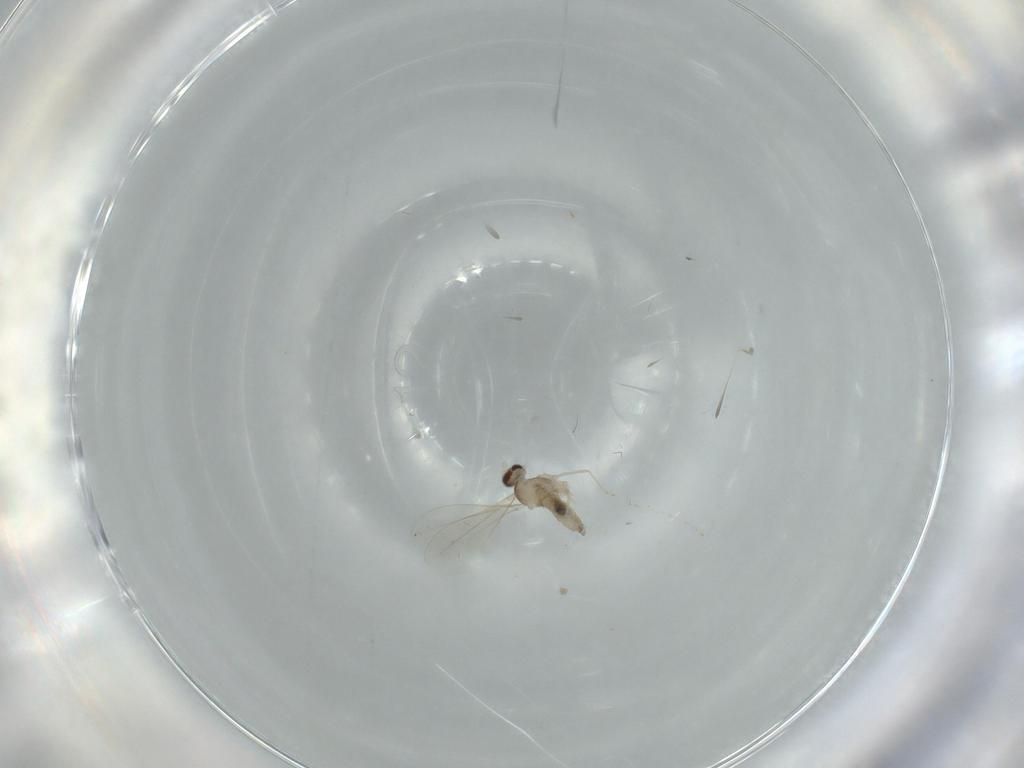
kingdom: Animalia
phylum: Arthropoda
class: Insecta
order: Diptera
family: Cecidomyiidae
